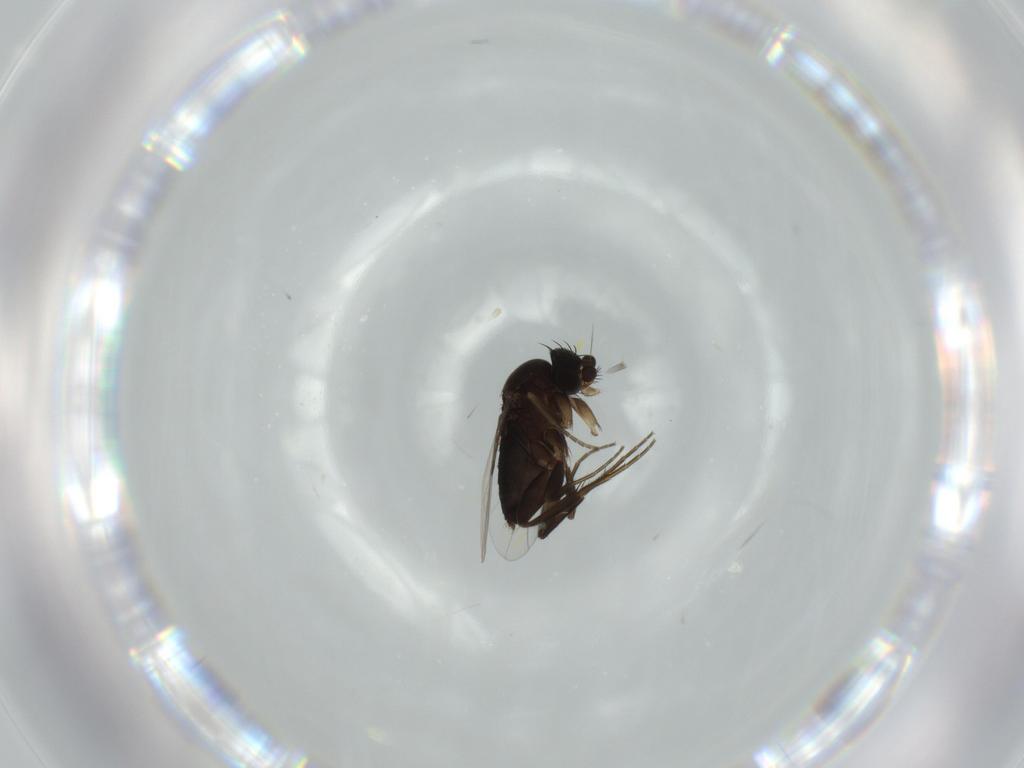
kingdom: Animalia
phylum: Arthropoda
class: Insecta
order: Diptera
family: Phoridae
